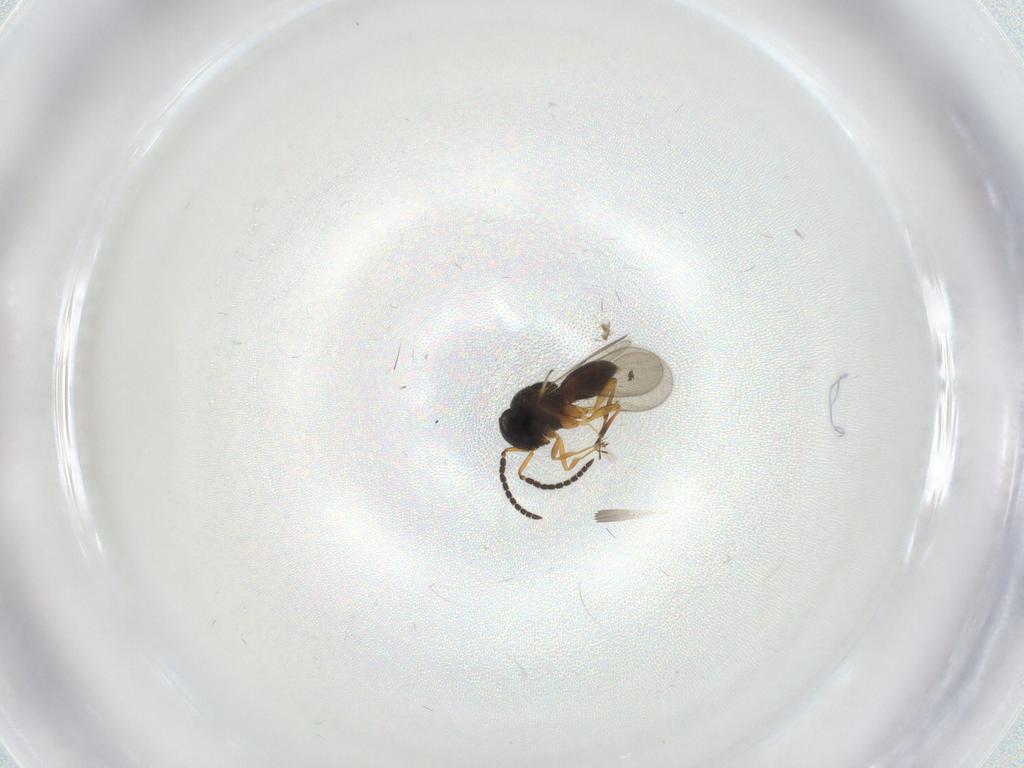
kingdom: Animalia
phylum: Arthropoda
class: Insecta
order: Hymenoptera
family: Scelionidae
